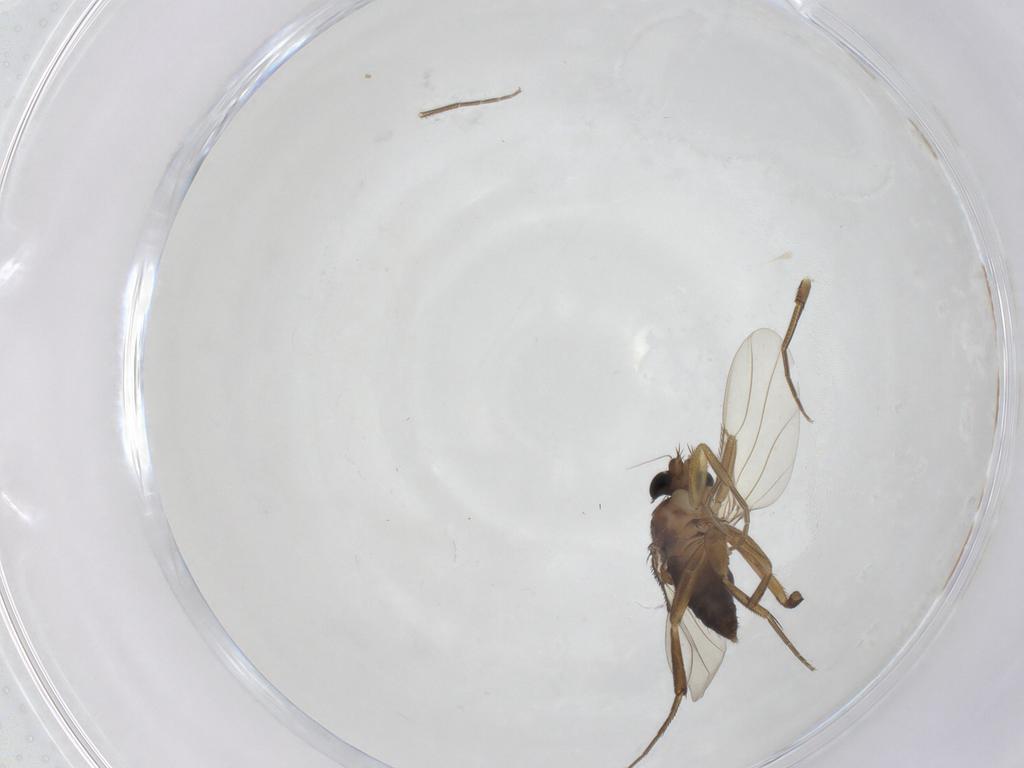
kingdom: Animalia
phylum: Arthropoda
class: Insecta
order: Diptera
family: Phoridae
